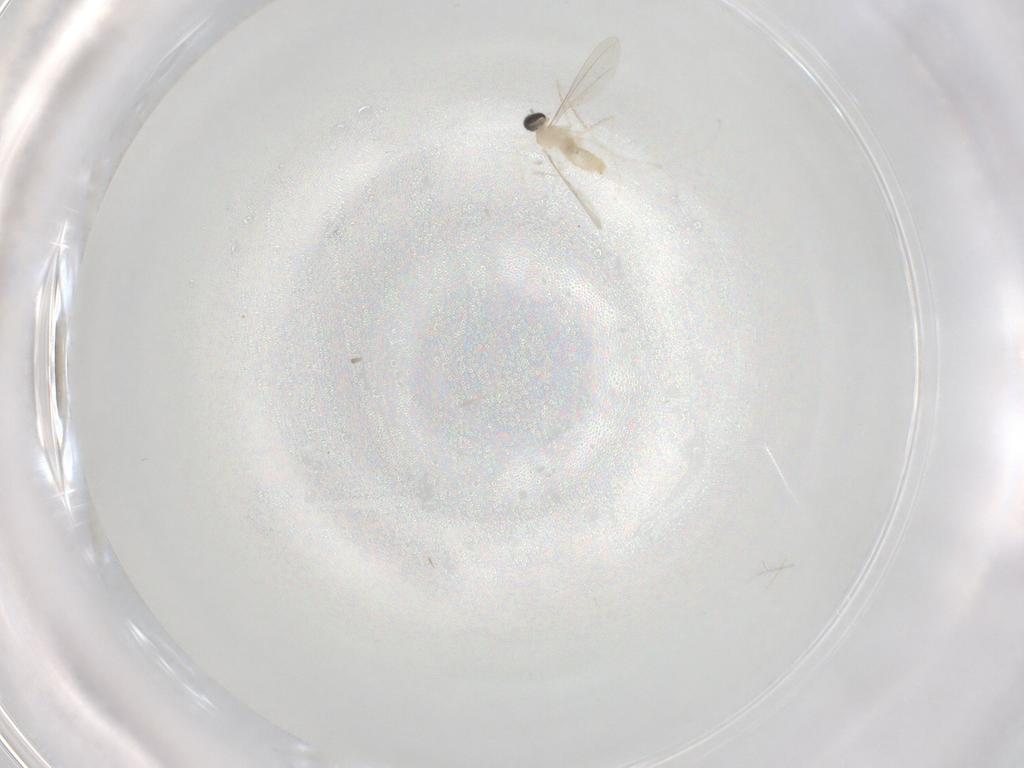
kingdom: Animalia
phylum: Arthropoda
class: Insecta
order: Diptera
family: Cecidomyiidae
